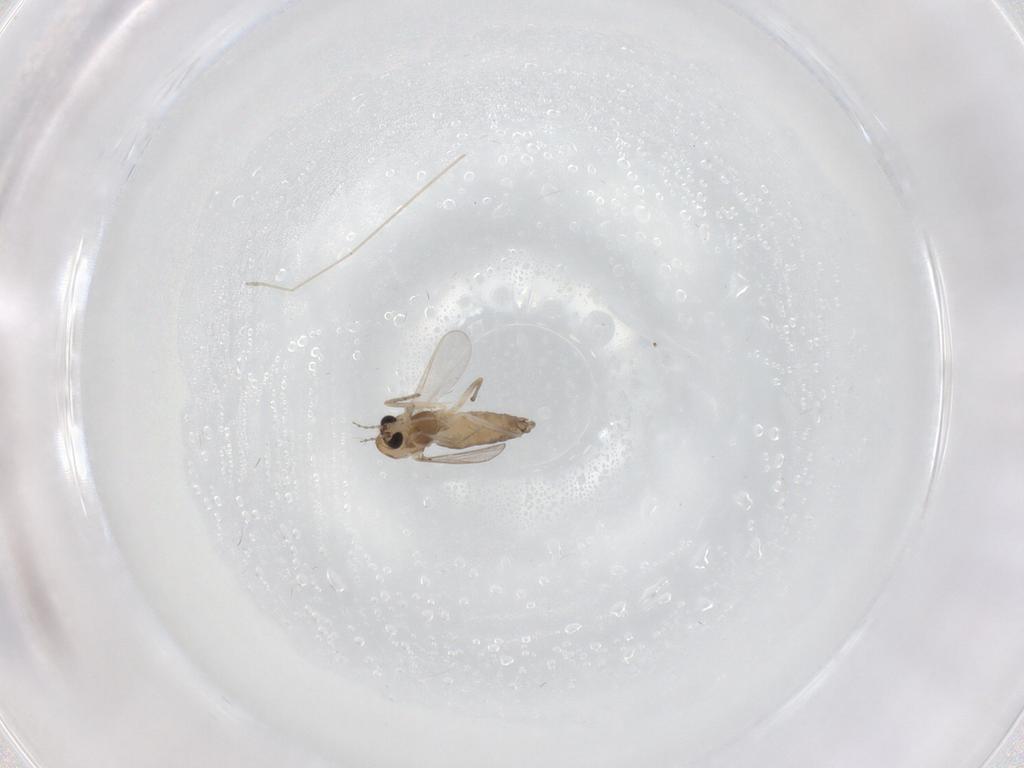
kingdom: Animalia
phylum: Arthropoda
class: Insecta
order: Diptera
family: Cecidomyiidae
